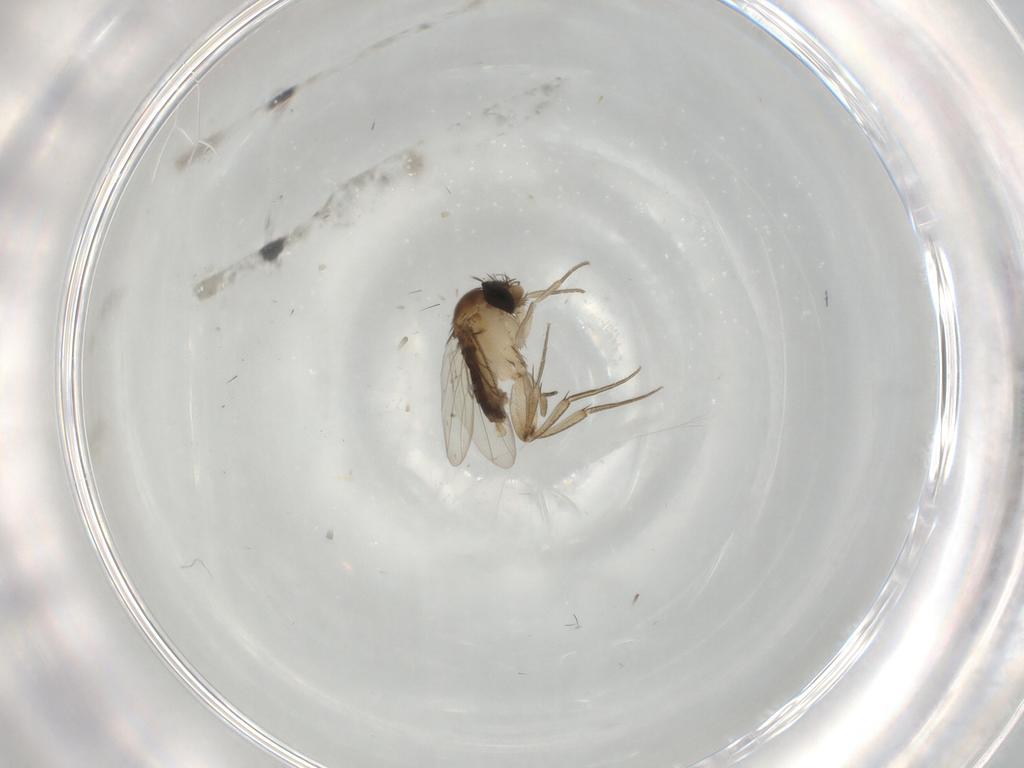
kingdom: Animalia
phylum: Arthropoda
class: Insecta
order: Diptera
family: Phoridae
